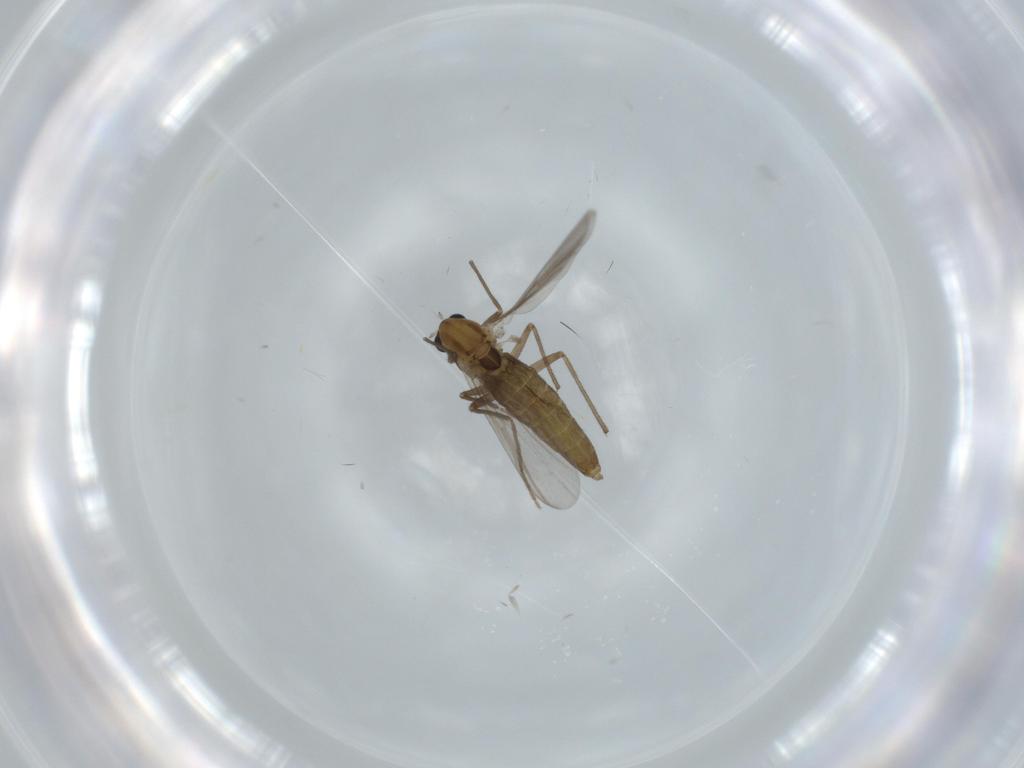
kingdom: Animalia
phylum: Arthropoda
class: Insecta
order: Diptera
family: Chironomidae
